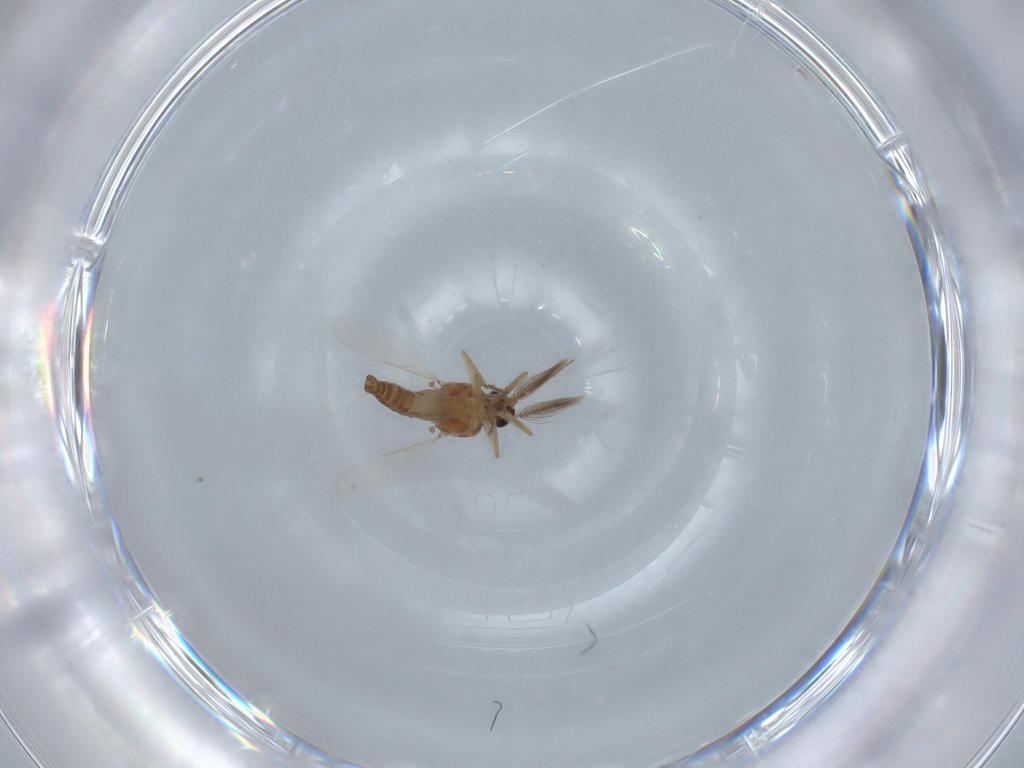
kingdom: Animalia
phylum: Arthropoda
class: Insecta
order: Diptera
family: Ceratopogonidae
